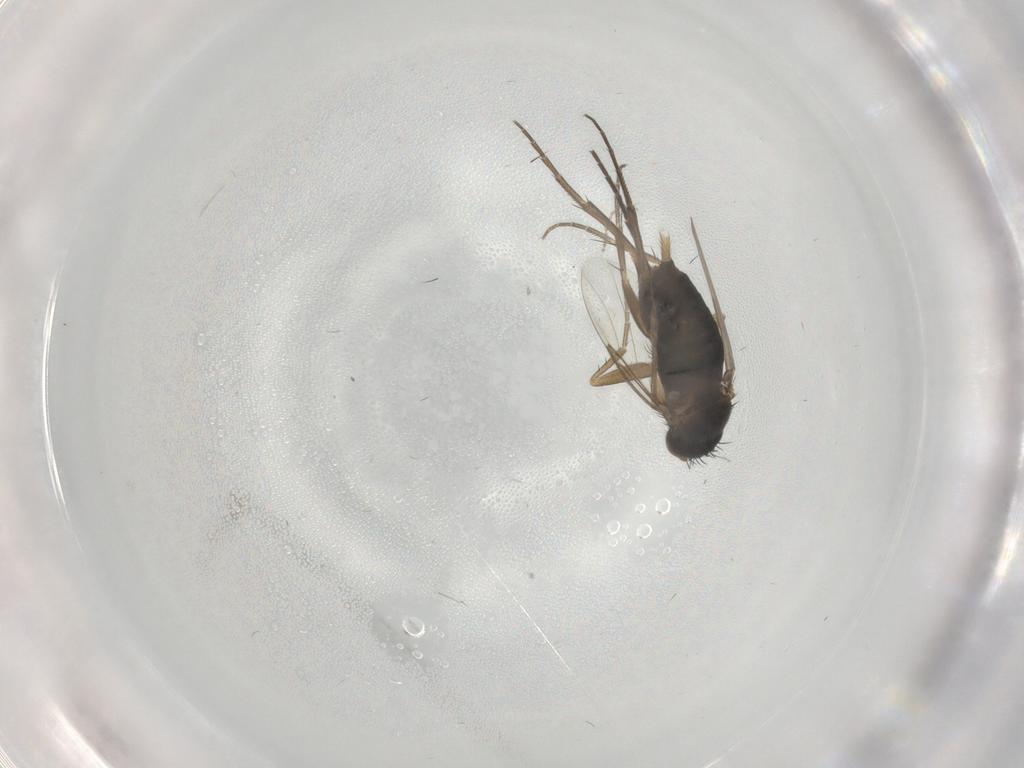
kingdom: Animalia
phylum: Arthropoda
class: Insecta
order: Diptera
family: Phoridae
